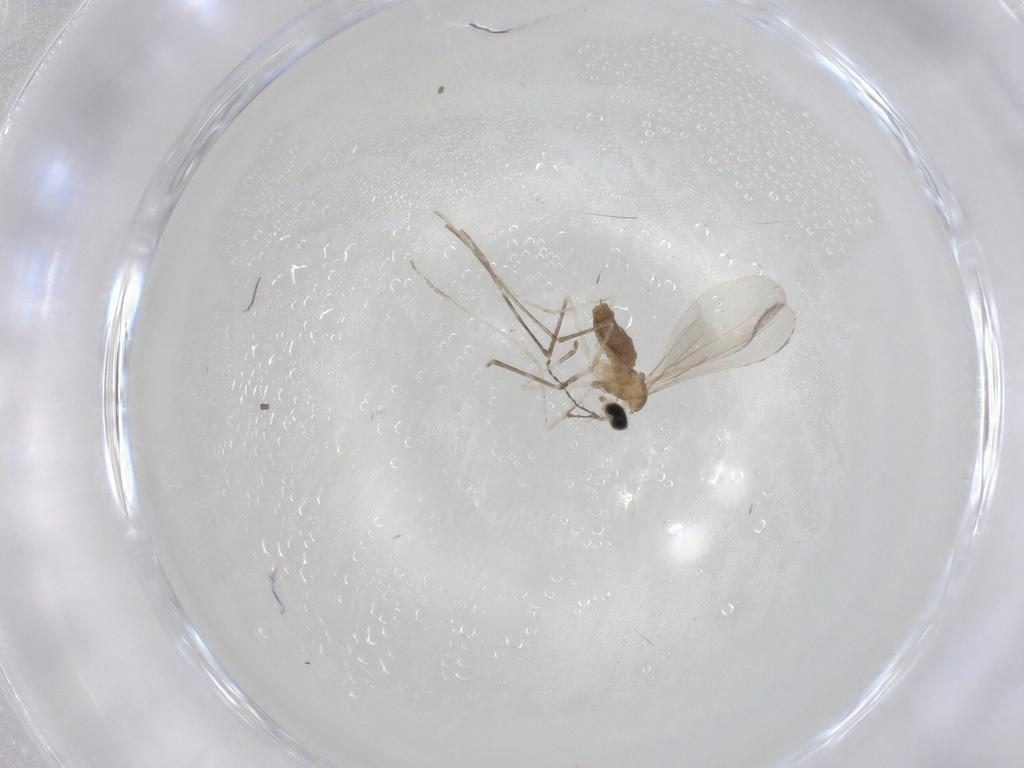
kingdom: Animalia
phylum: Arthropoda
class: Insecta
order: Diptera
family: Cecidomyiidae
